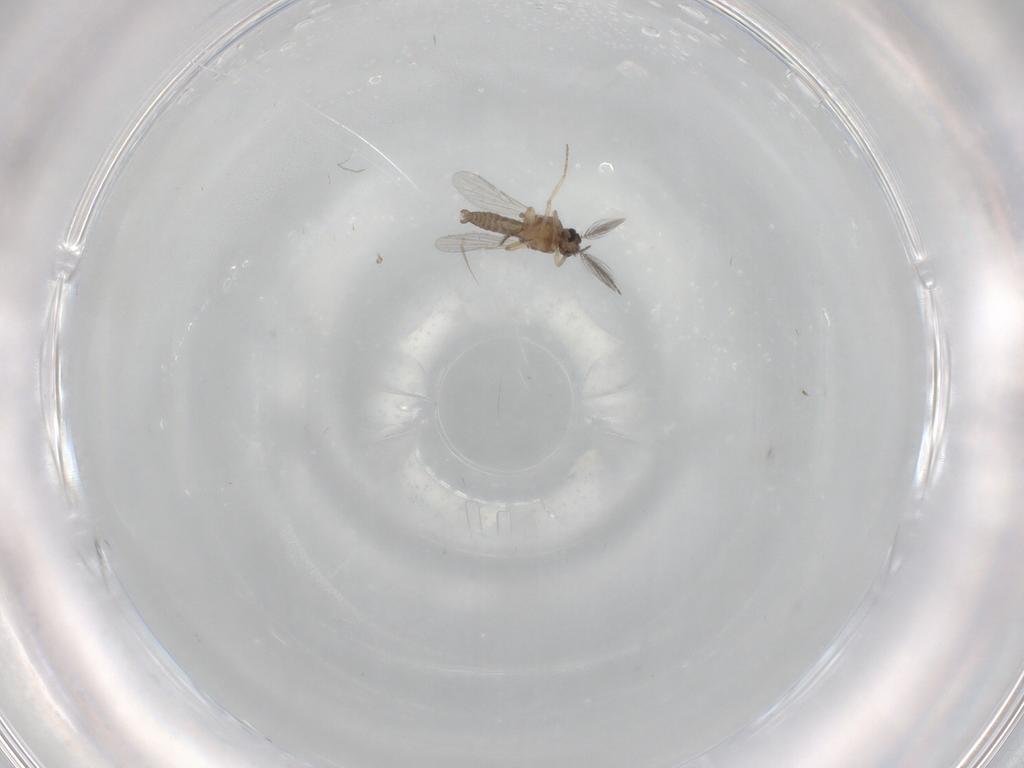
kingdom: Animalia
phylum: Arthropoda
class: Insecta
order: Diptera
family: Ceratopogonidae
